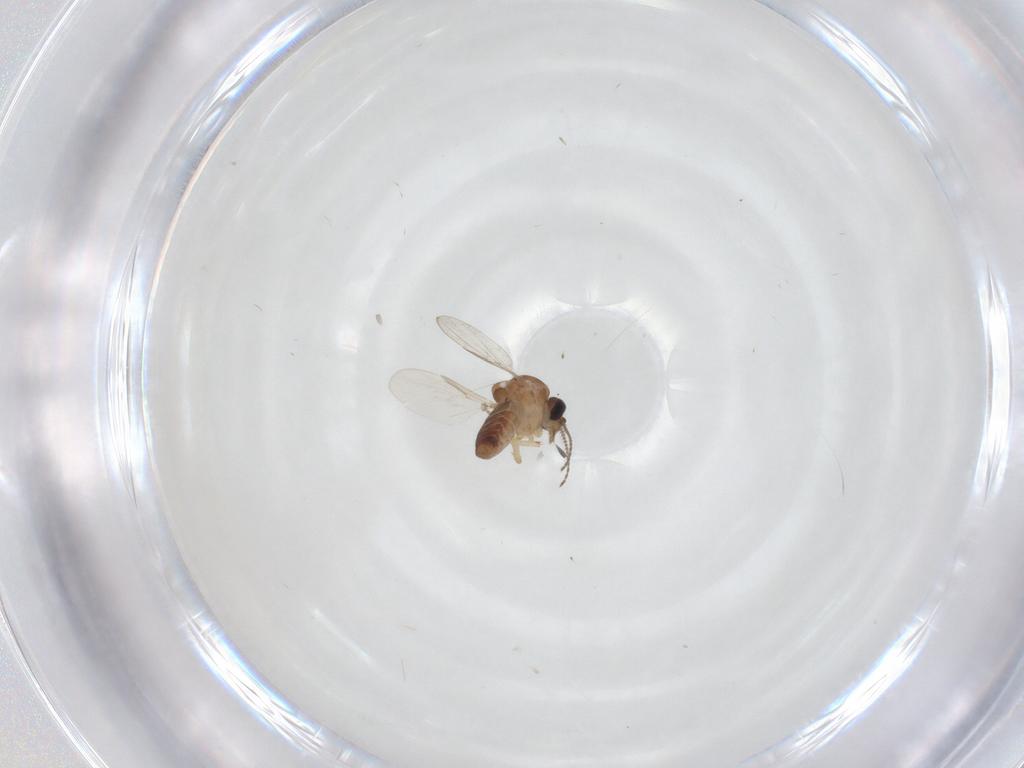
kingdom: Animalia
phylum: Arthropoda
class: Insecta
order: Diptera
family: Ceratopogonidae
